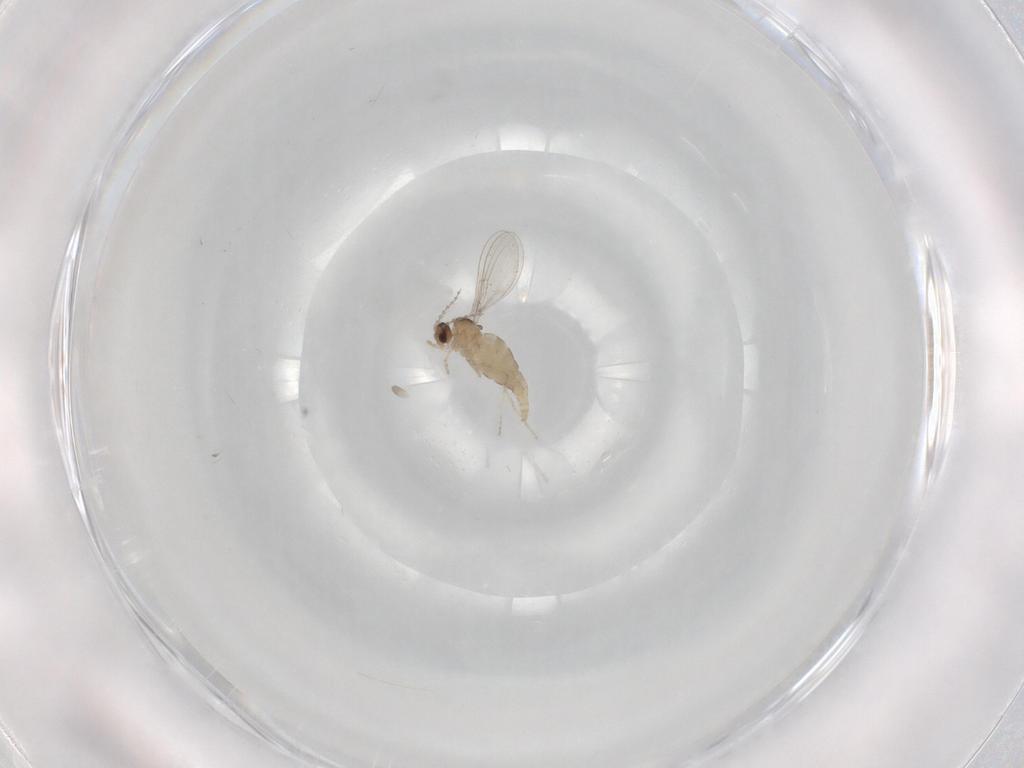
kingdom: Animalia
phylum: Arthropoda
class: Insecta
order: Diptera
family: Cecidomyiidae
